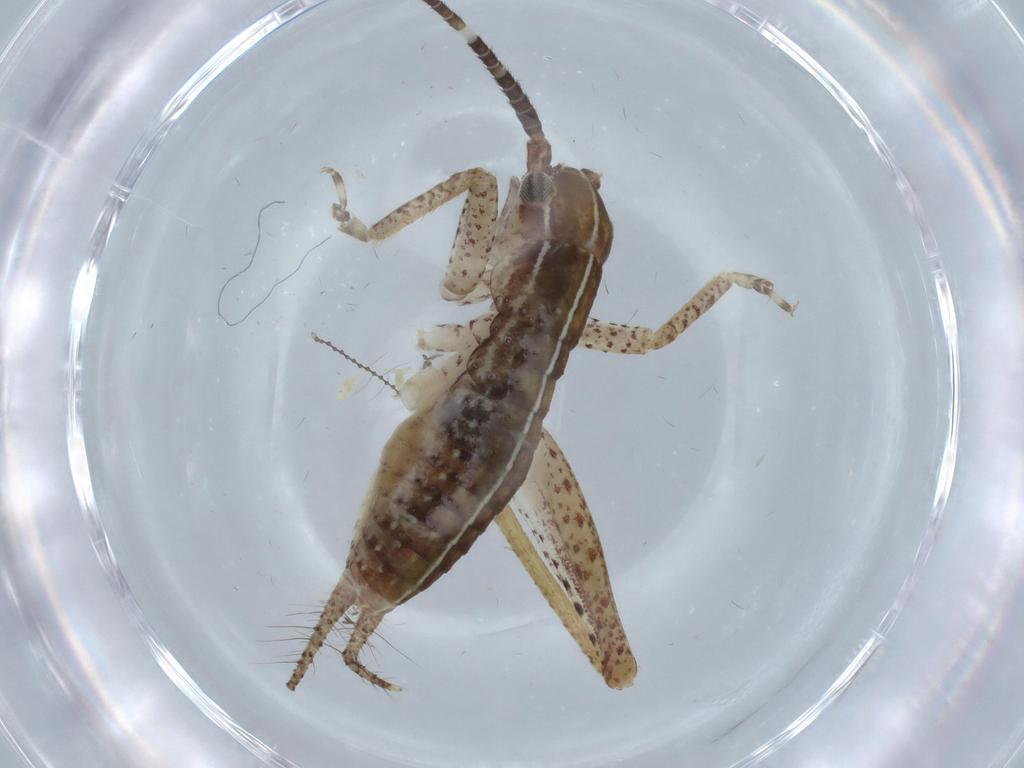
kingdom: Animalia
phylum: Arthropoda
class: Insecta
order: Orthoptera
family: Gryllidae
